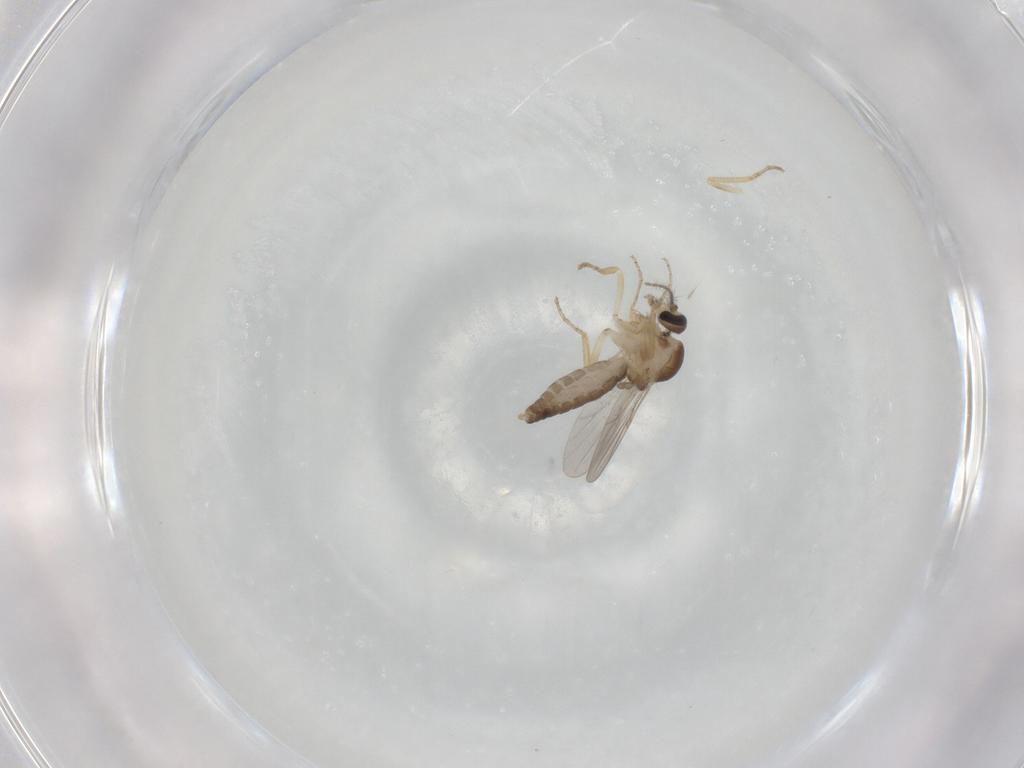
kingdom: Animalia
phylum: Arthropoda
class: Insecta
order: Diptera
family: Ceratopogonidae
